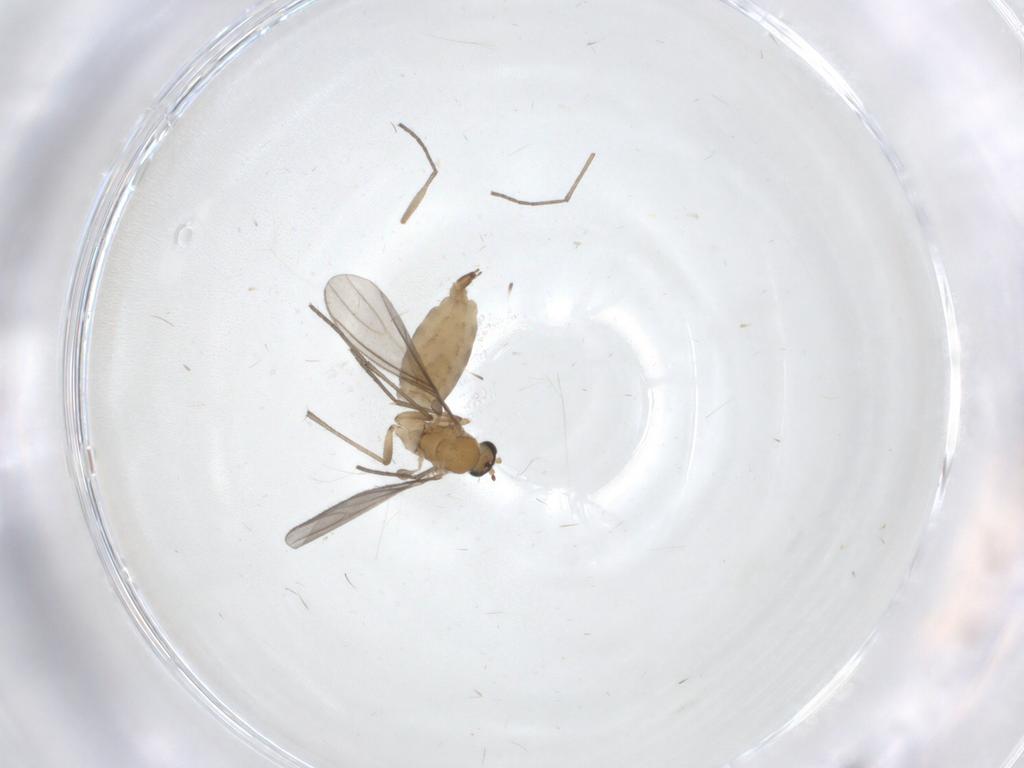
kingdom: Animalia
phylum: Arthropoda
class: Insecta
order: Diptera
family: Sciaridae
